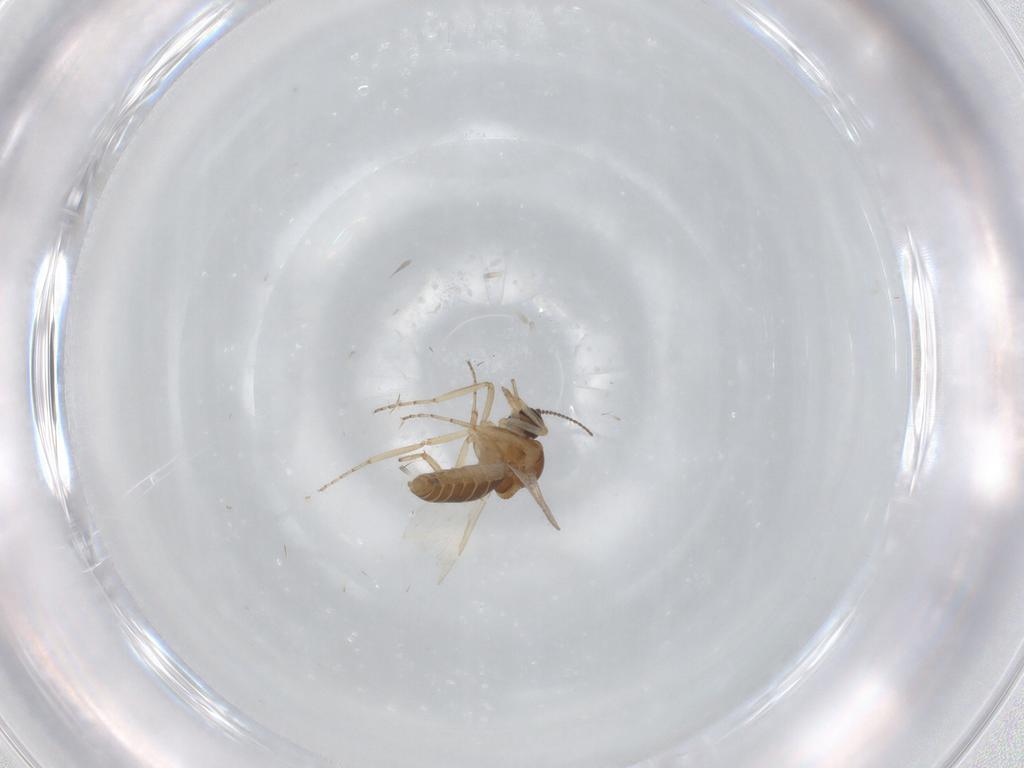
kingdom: Animalia
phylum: Arthropoda
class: Insecta
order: Diptera
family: Ceratopogonidae
